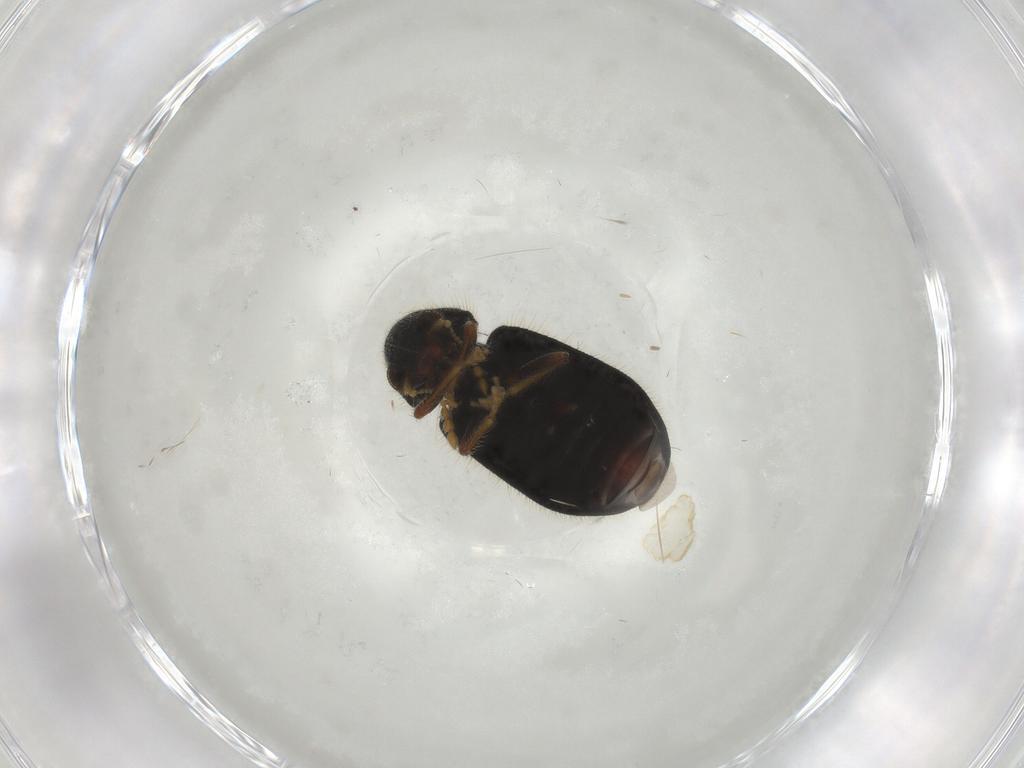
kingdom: Animalia
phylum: Arthropoda
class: Insecta
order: Coleoptera
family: Cleridae
